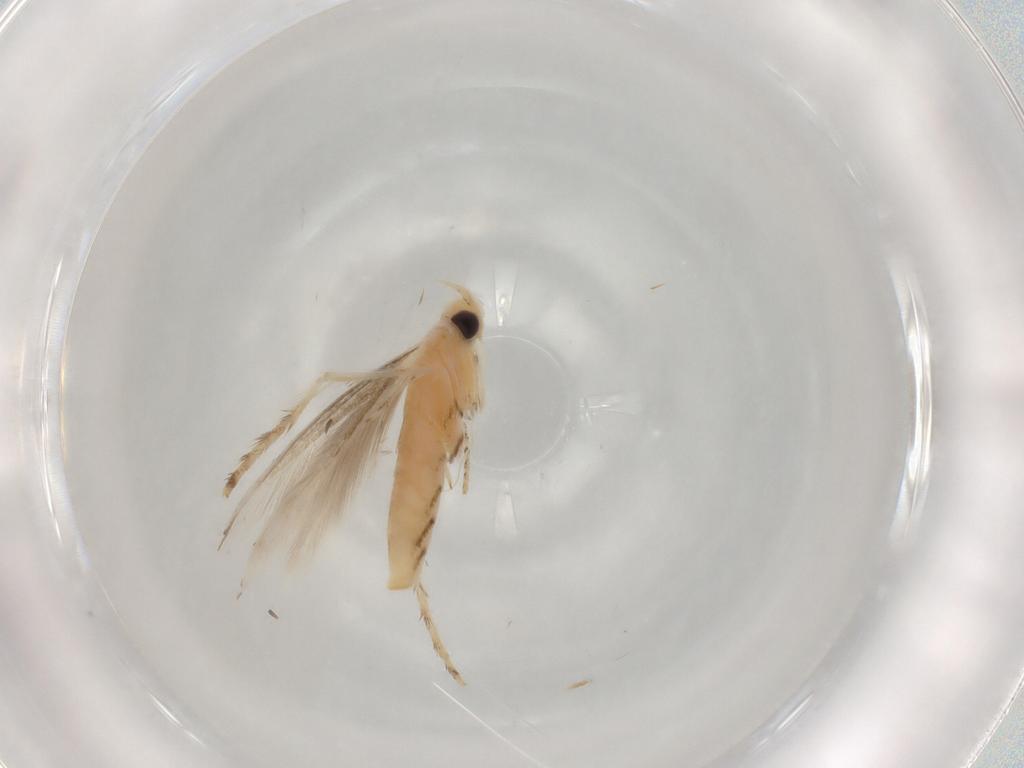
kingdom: Animalia
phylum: Arthropoda
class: Insecta
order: Lepidoptera
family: Gracillariidae
